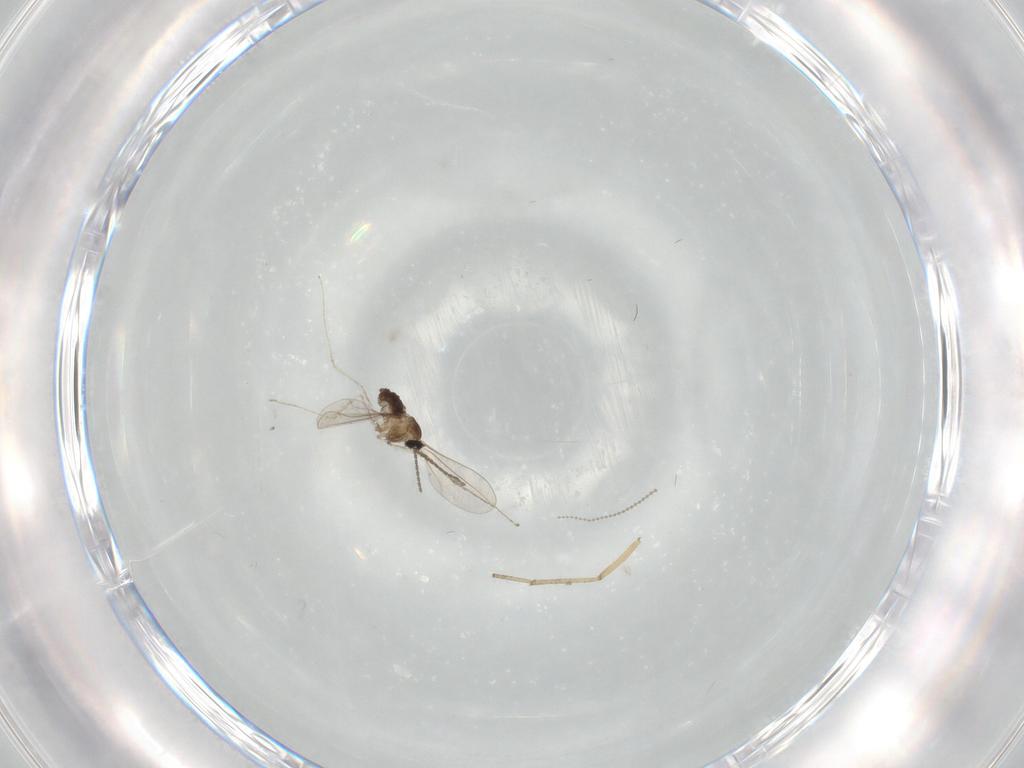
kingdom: Animalia
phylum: Arthropoda
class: Insecta
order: Diptera
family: Cecidomyiidae
